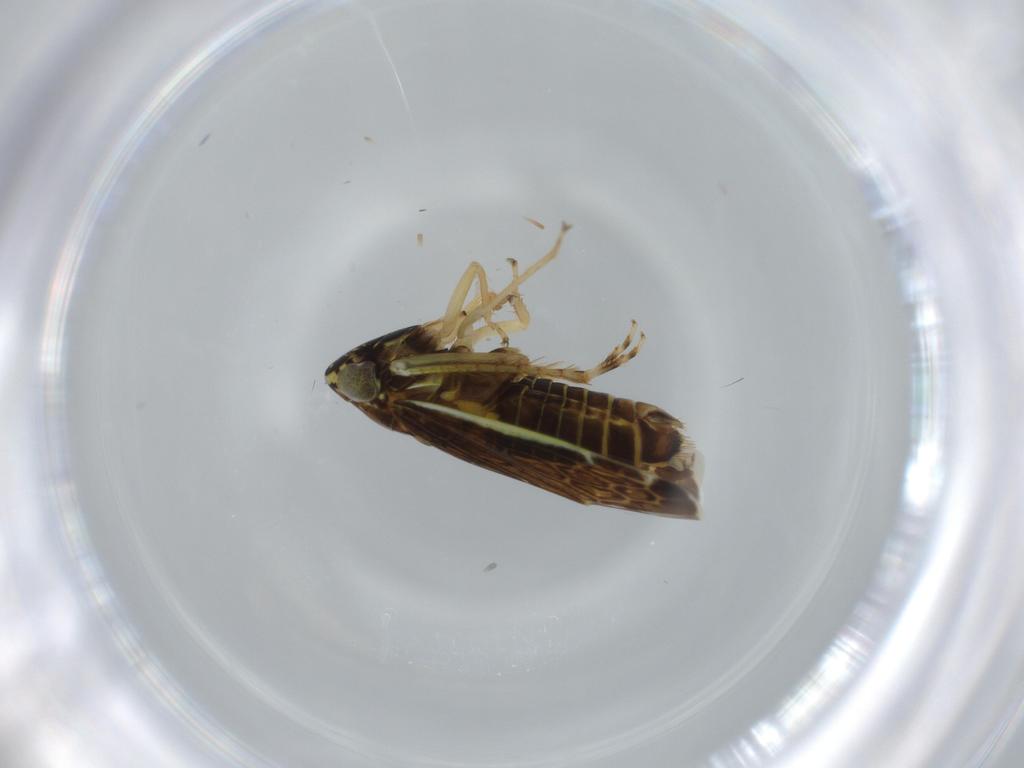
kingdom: Animalia
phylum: Arthropoda
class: Insecta
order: Hemiptera
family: Cicadellidae
